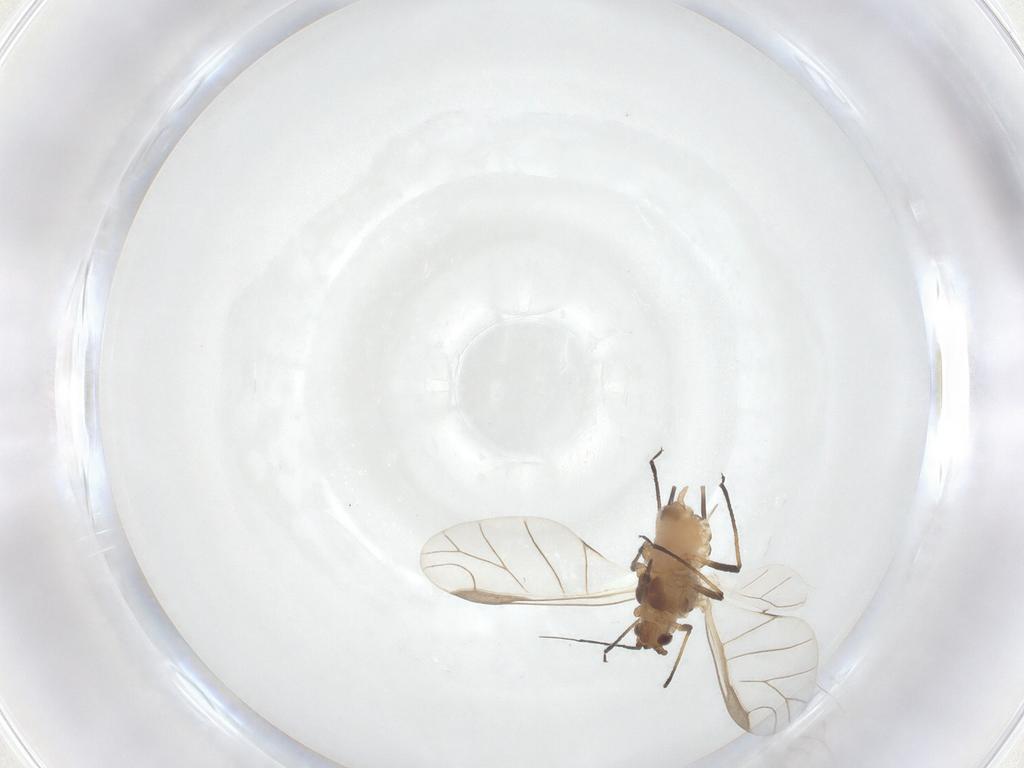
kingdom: Animalia
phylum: Arthropoda
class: Insecta
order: Hemiptera
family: Aphididae
